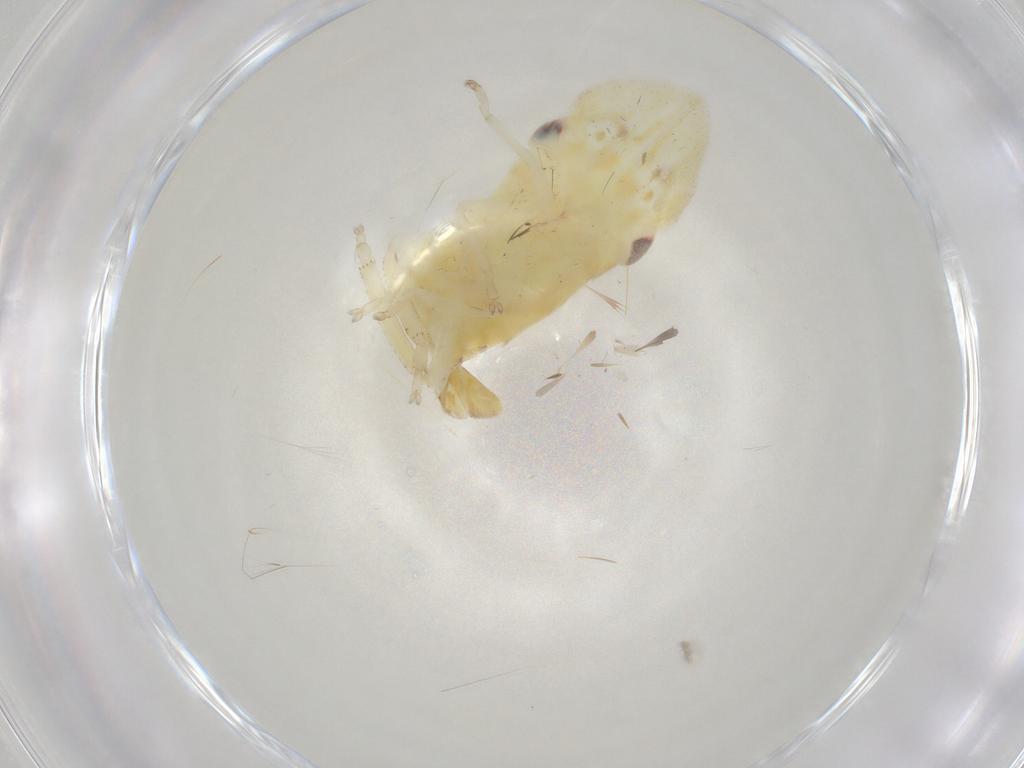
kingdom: Animalia
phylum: Arthropoda
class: Insecta
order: Hemiptera
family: Cicadellidae
